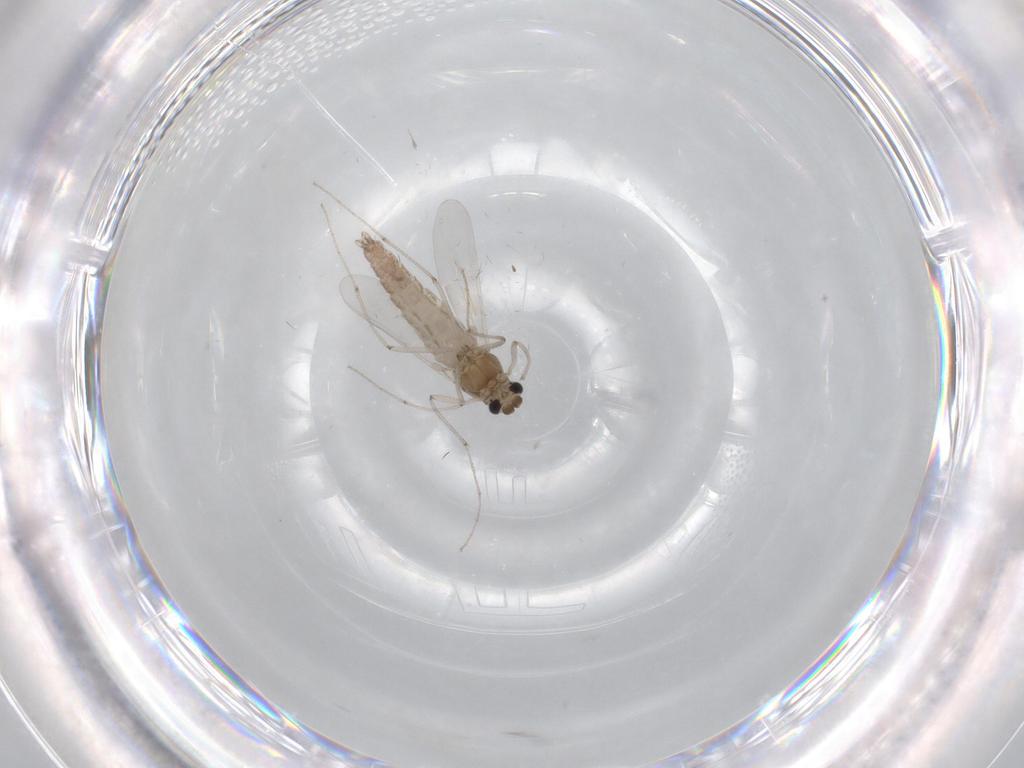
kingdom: Animalia
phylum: Arthropoda
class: Insecta
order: Diptera
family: Chironomidae
